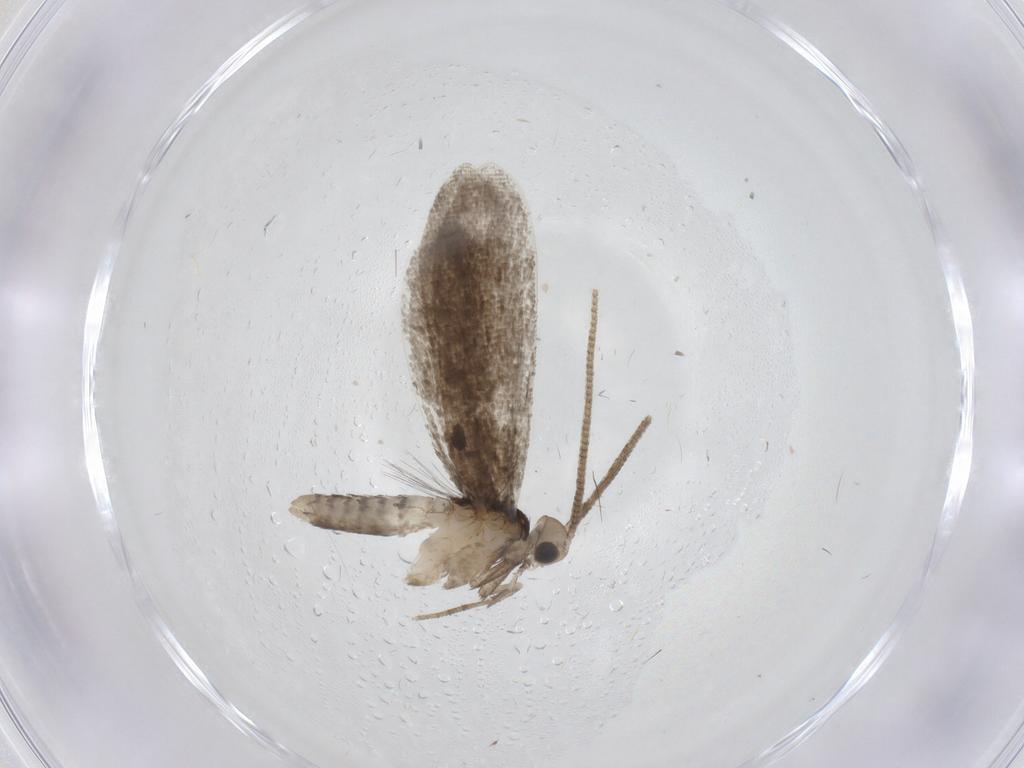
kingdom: Animalia
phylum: Arthropoda
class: Insecta
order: Lepidoptera
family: Nymphalidae
